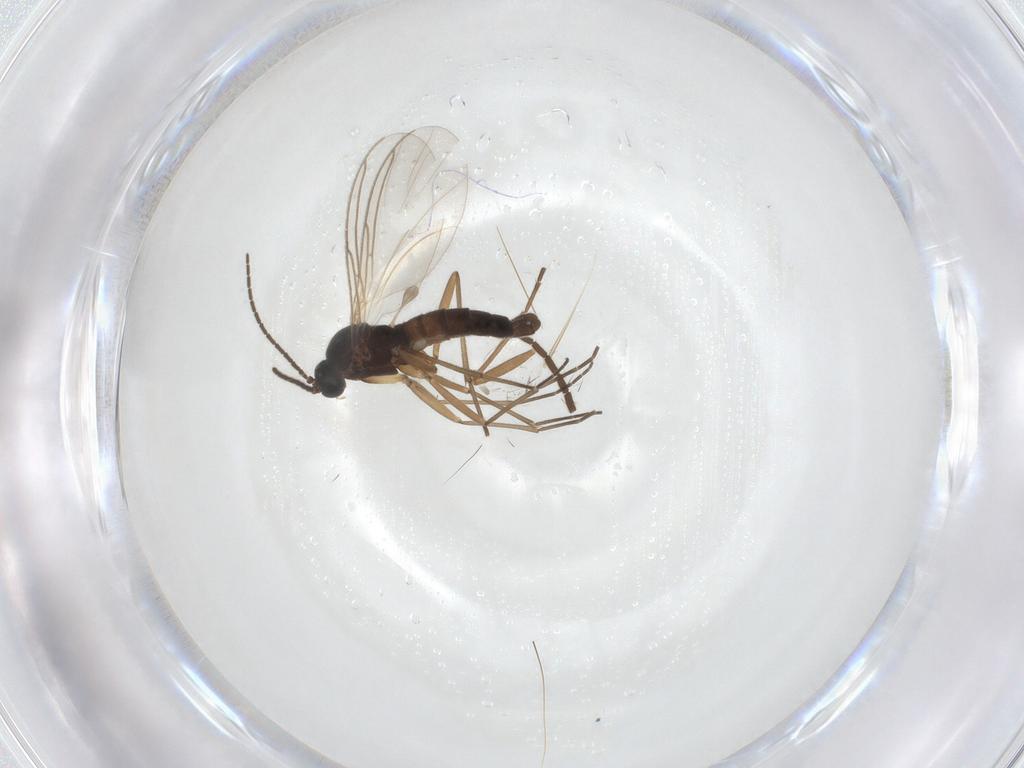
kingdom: Animalia
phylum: Arthropoda
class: Insecta
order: Diptera
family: Sciaridae
